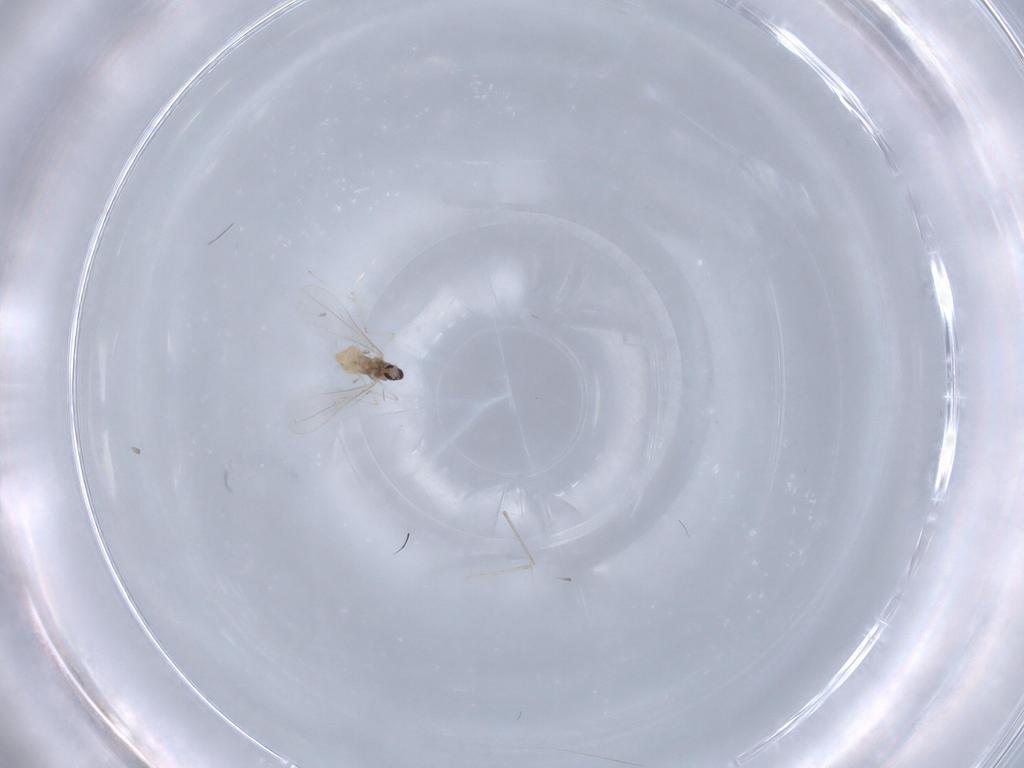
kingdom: Animalia
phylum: Arthropoda
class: Insecta
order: Diptera
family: Cecidomyiidae
